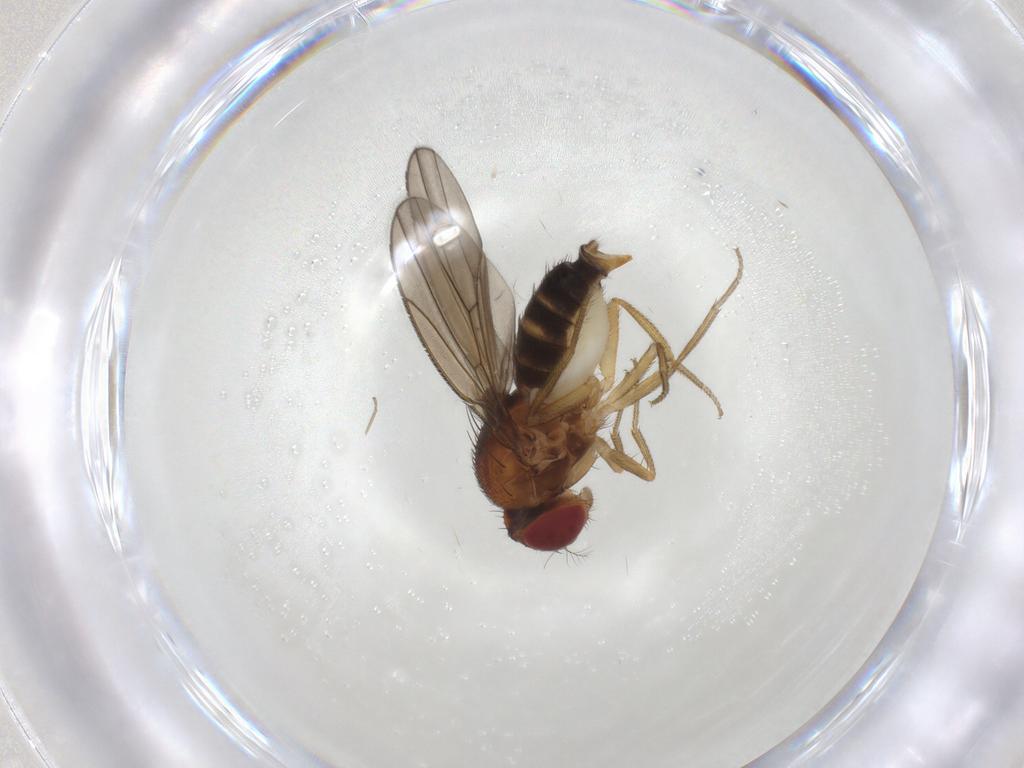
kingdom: Animalia
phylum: Arthropoda
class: Insecta
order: Diptera
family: Drosophilidae
